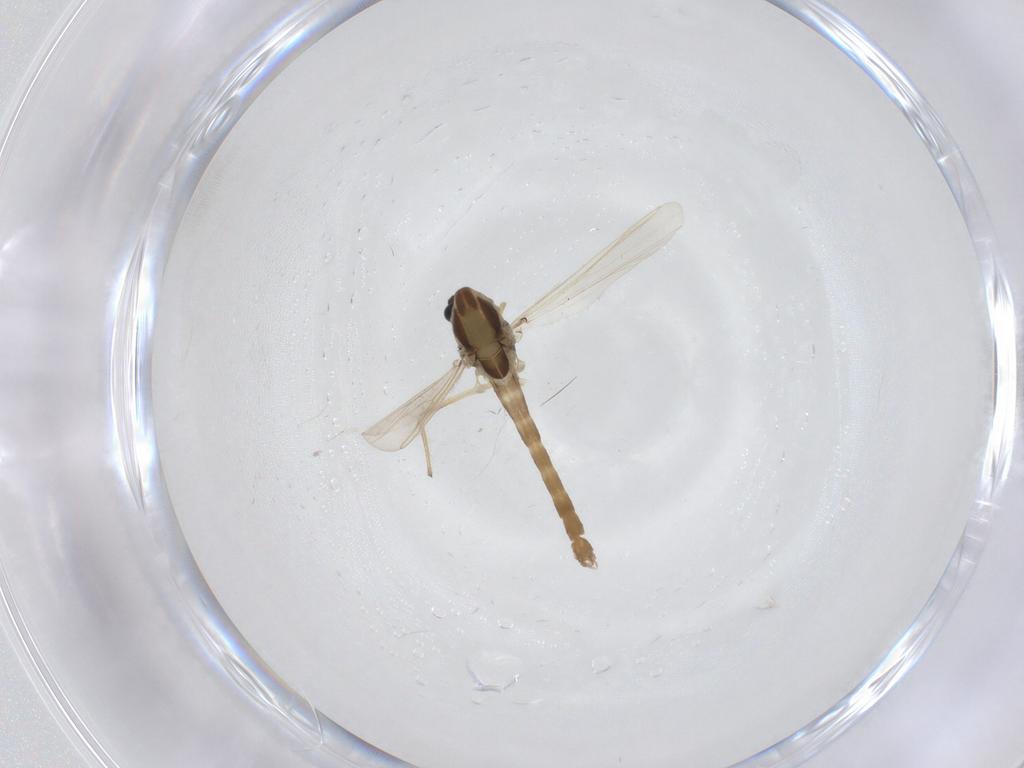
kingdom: Animalia
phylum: Arthropoda
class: Insecta
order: Diptera
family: Chironomidae
